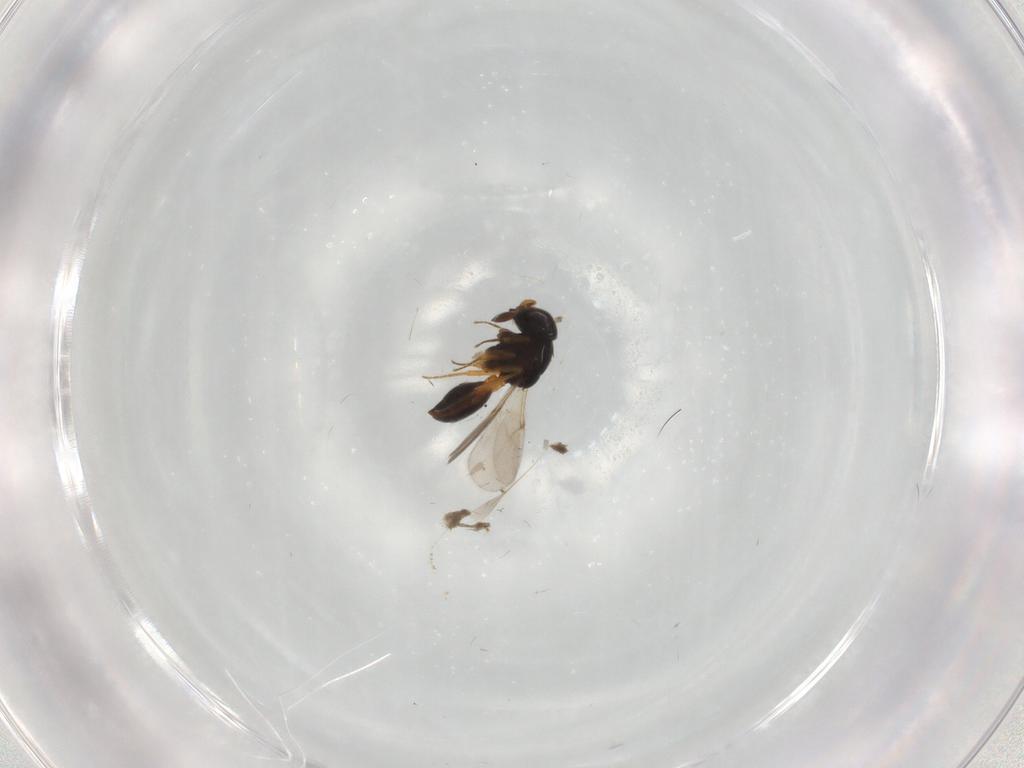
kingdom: Animalia
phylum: Arthropoda
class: Insecta
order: Hymenoptera
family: Scelionidae
